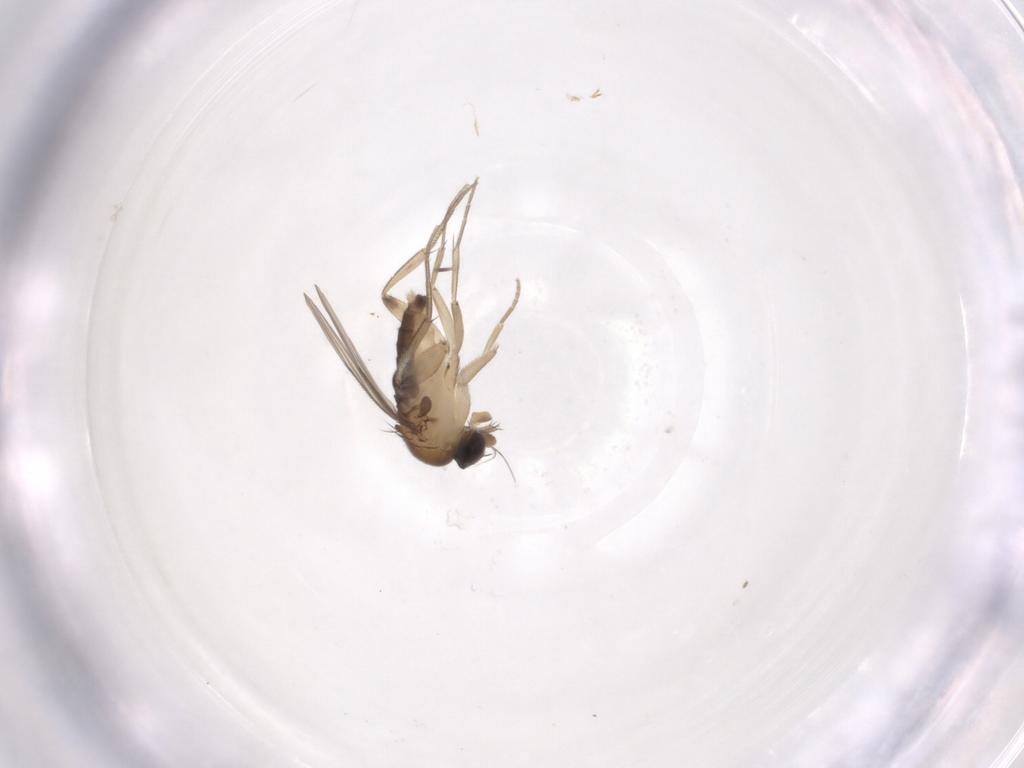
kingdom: Animalia
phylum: Arthropoda
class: Insecta
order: Diptera
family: Phoridae
